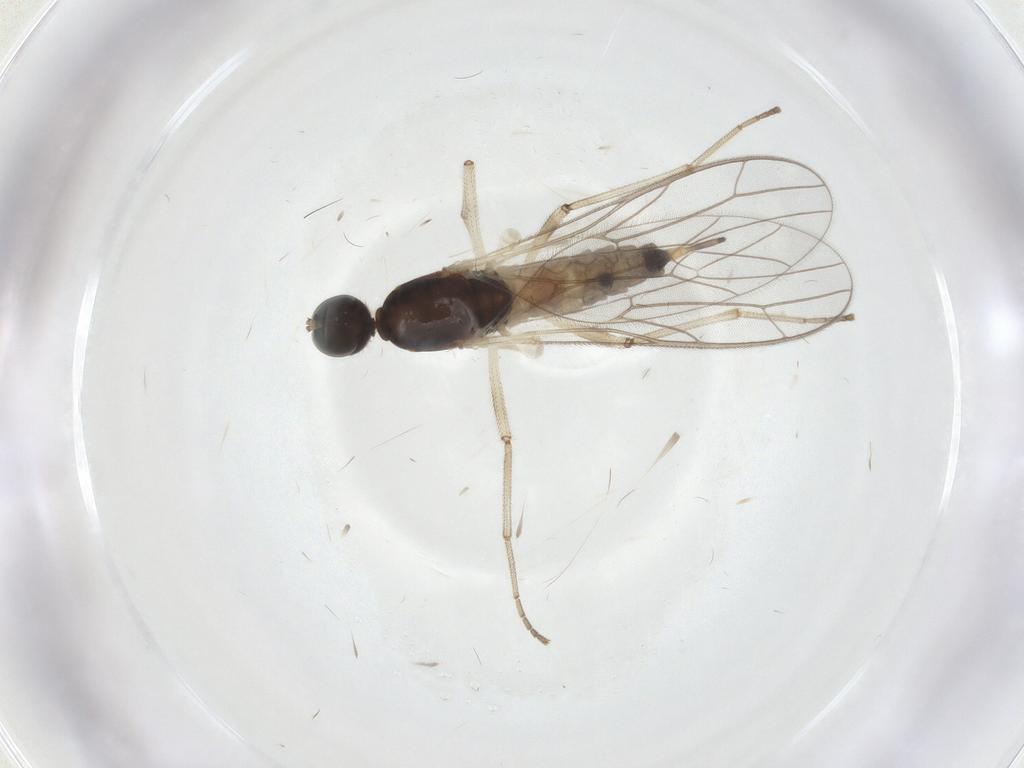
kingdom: Animalia
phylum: Arthropoda
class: Insecta
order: Diptera
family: Empididae
